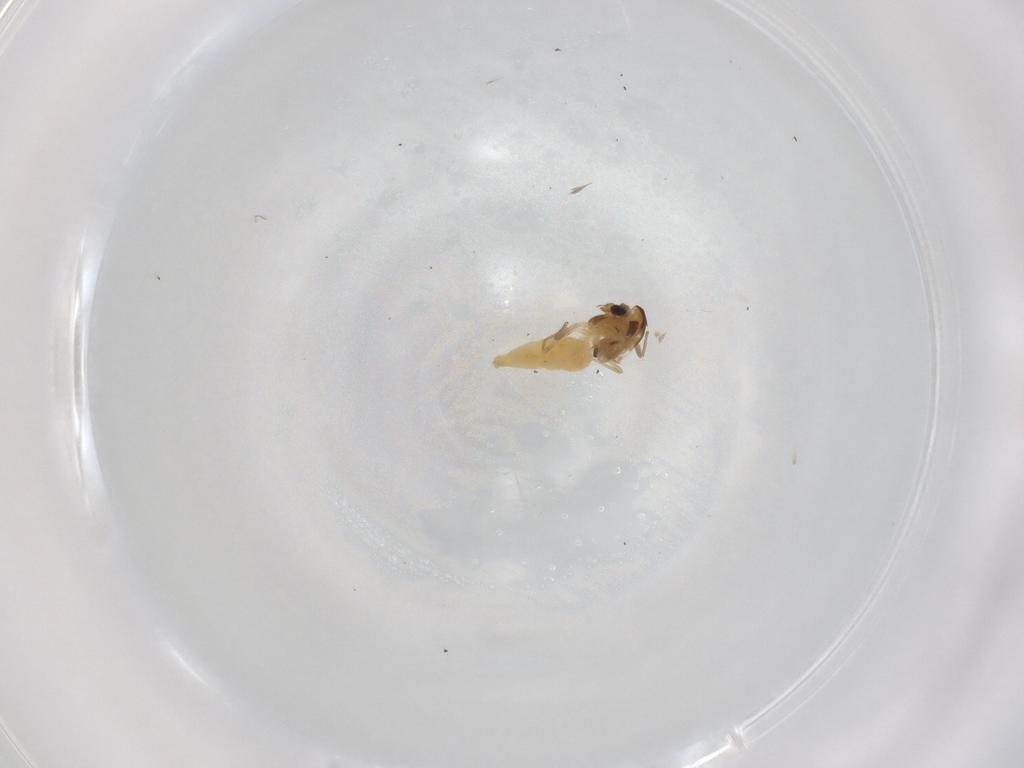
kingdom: Animalia
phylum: Arthropoda
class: Insecta
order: Diptera
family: Chironomidae
